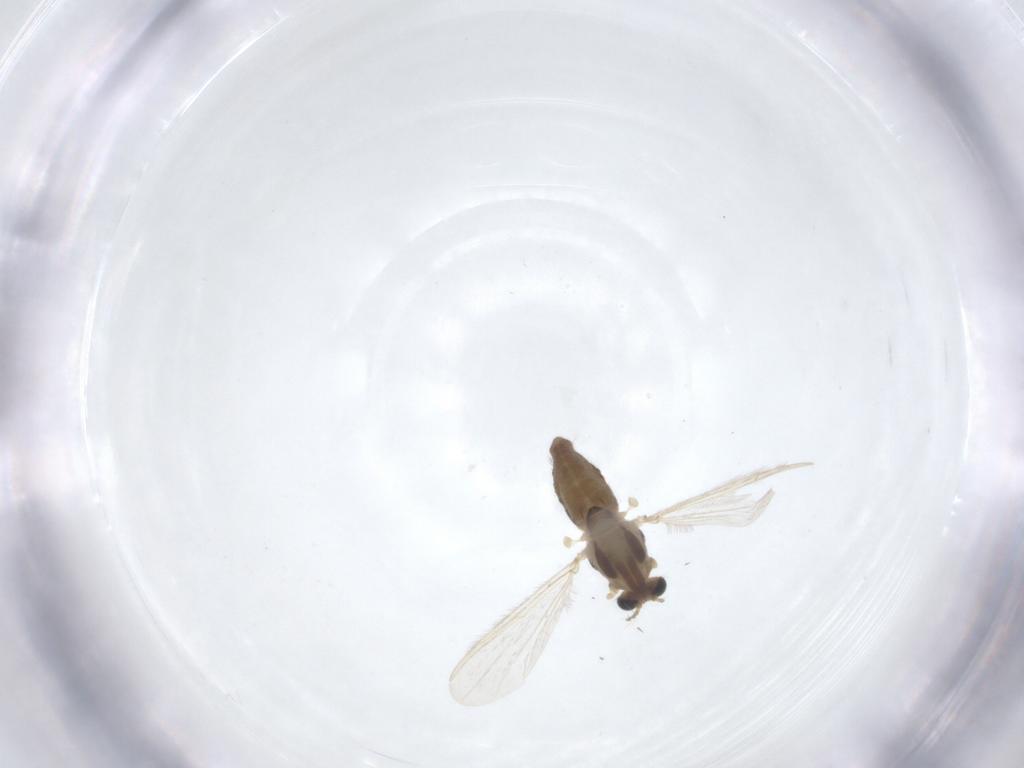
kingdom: Animalia
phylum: Arthropoda
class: Insecta
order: Diptera
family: Chironomidae
